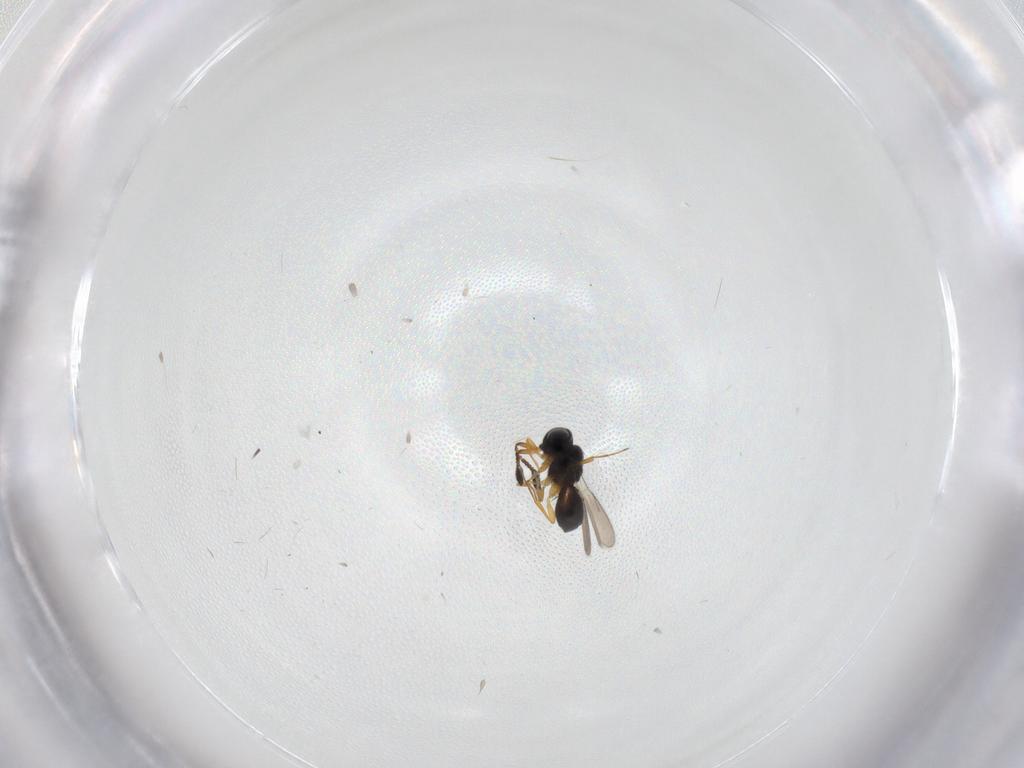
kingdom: Animalia
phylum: Arthropoda
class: Insecta
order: Hymenoptera
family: Scelionidae
